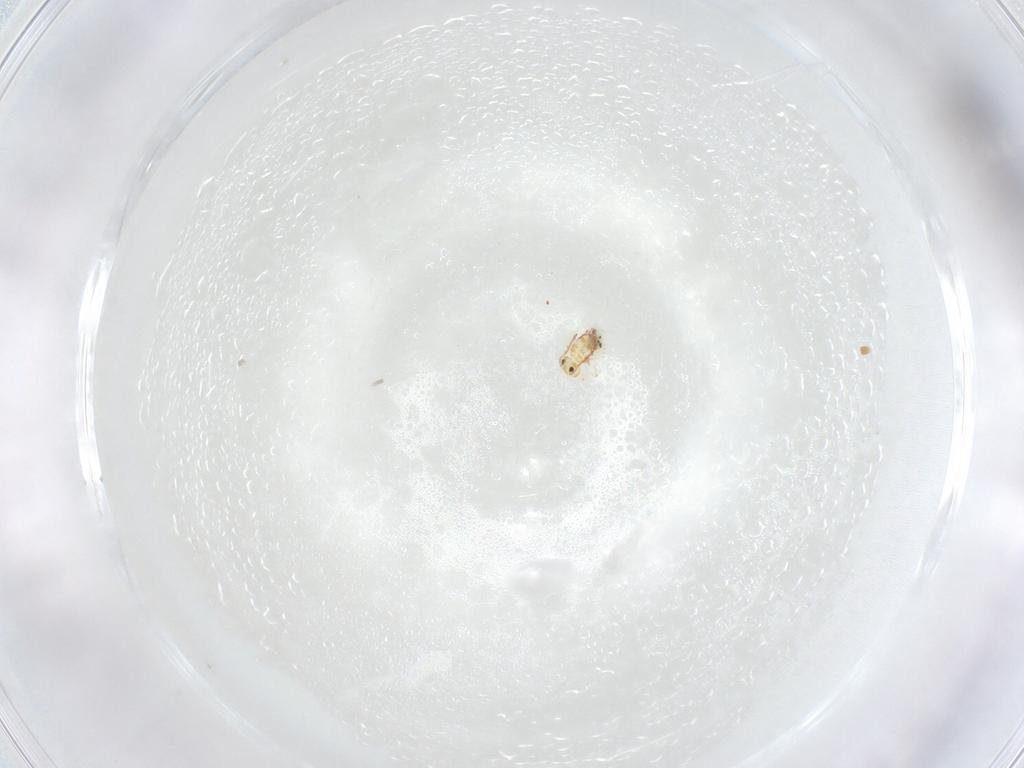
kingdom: Animalia
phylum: Arthropoda
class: Collembola
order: Symphypleona
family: Bourletiellidae
